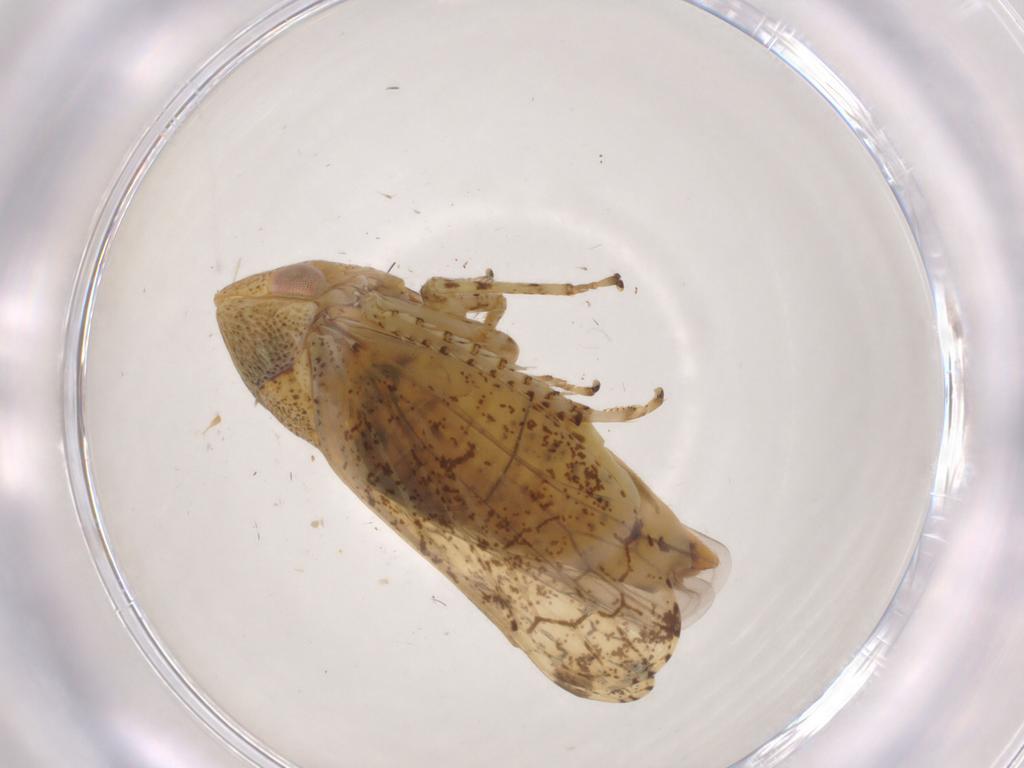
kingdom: Animalia
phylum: Arthropoda
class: Insecta
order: Hemiptera
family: Cicadellidae
